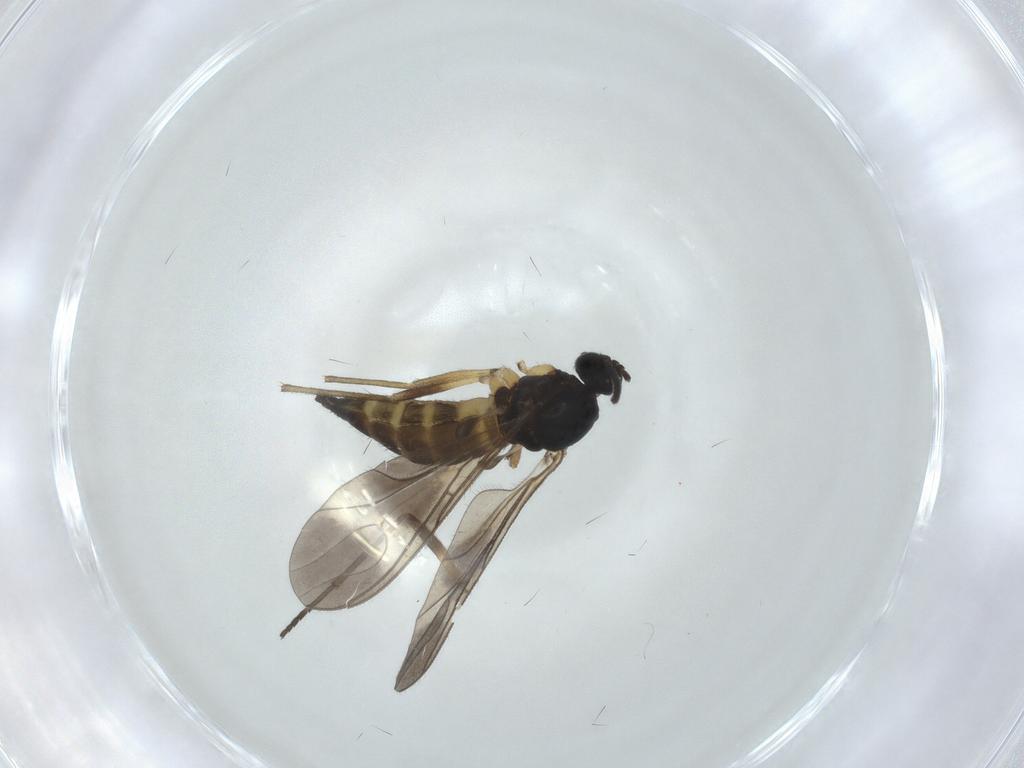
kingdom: Animalia
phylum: Arthropoda
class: Insecta
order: Diptera
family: Sciaridae
